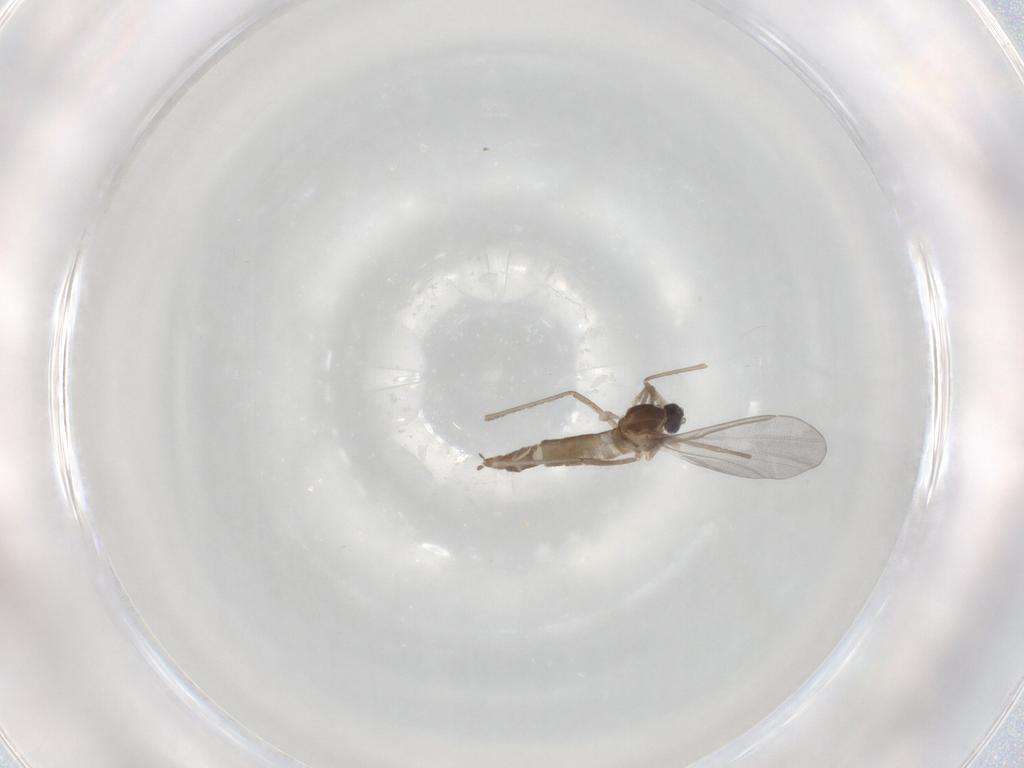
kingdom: Animalia
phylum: Arthropoda
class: Insecta
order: Diptera
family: Cecidomyiidae
